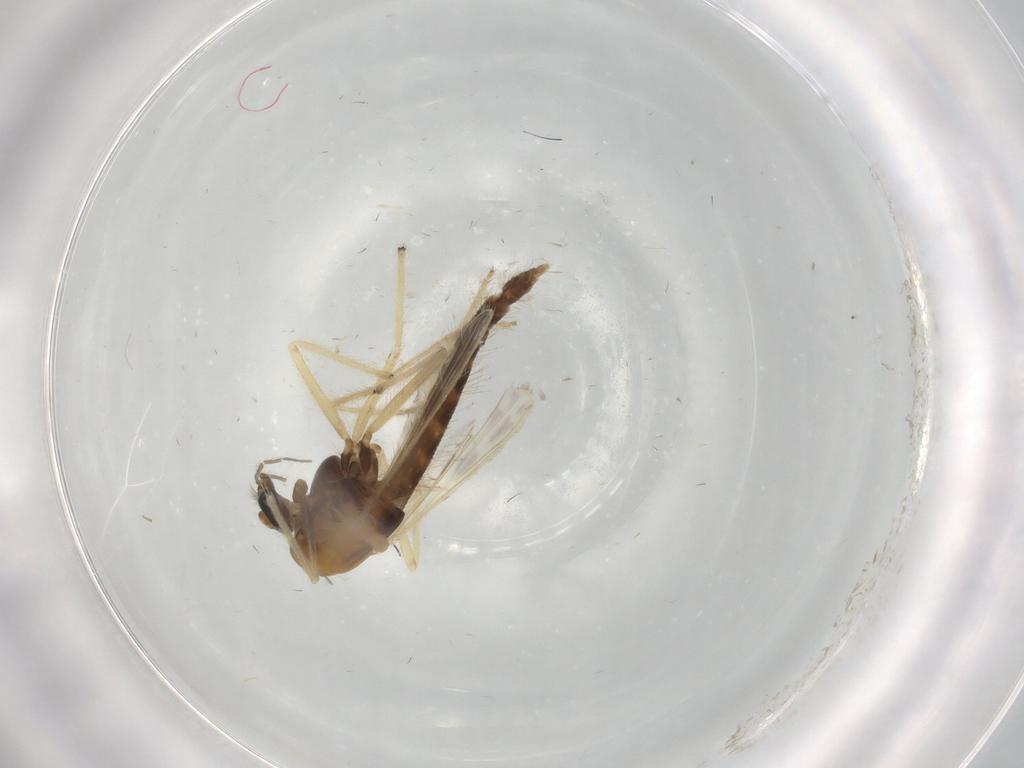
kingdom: Animalia
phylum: Arthropoda
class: Insecta
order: Diptera
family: Chironomidae
